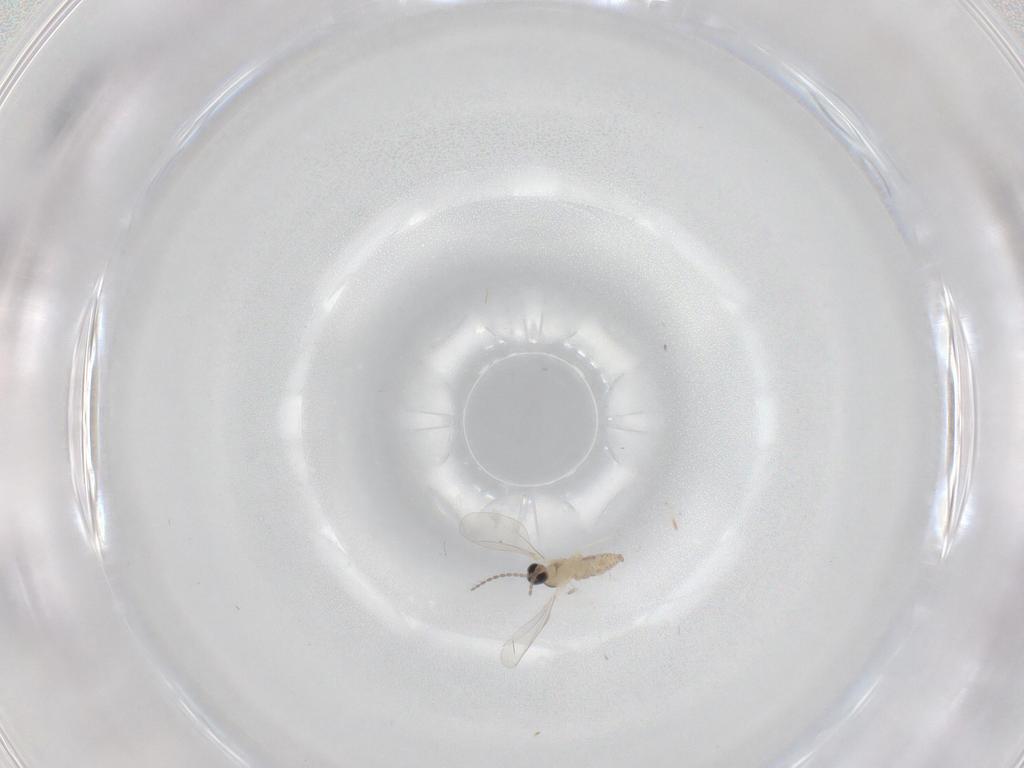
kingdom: Animalia
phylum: Arthropoda
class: Insecta
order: Diptera
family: Cecidomyiidae
